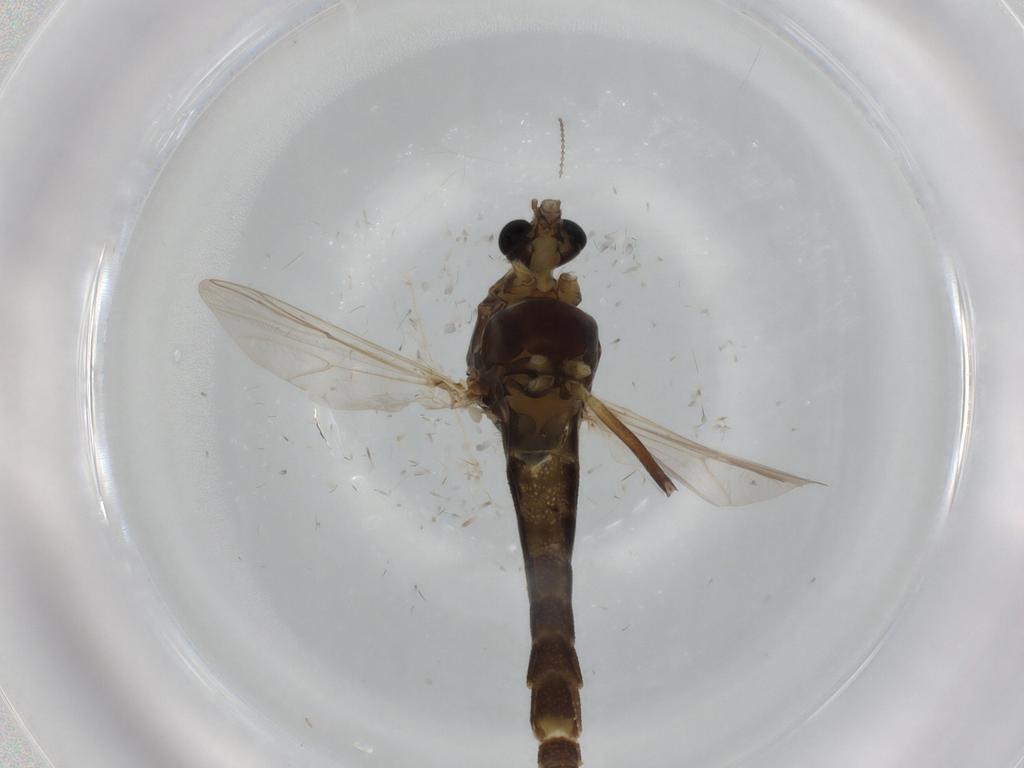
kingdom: Animalia
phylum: Arthropoda
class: Insecta
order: Diptera
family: Chironomidae
